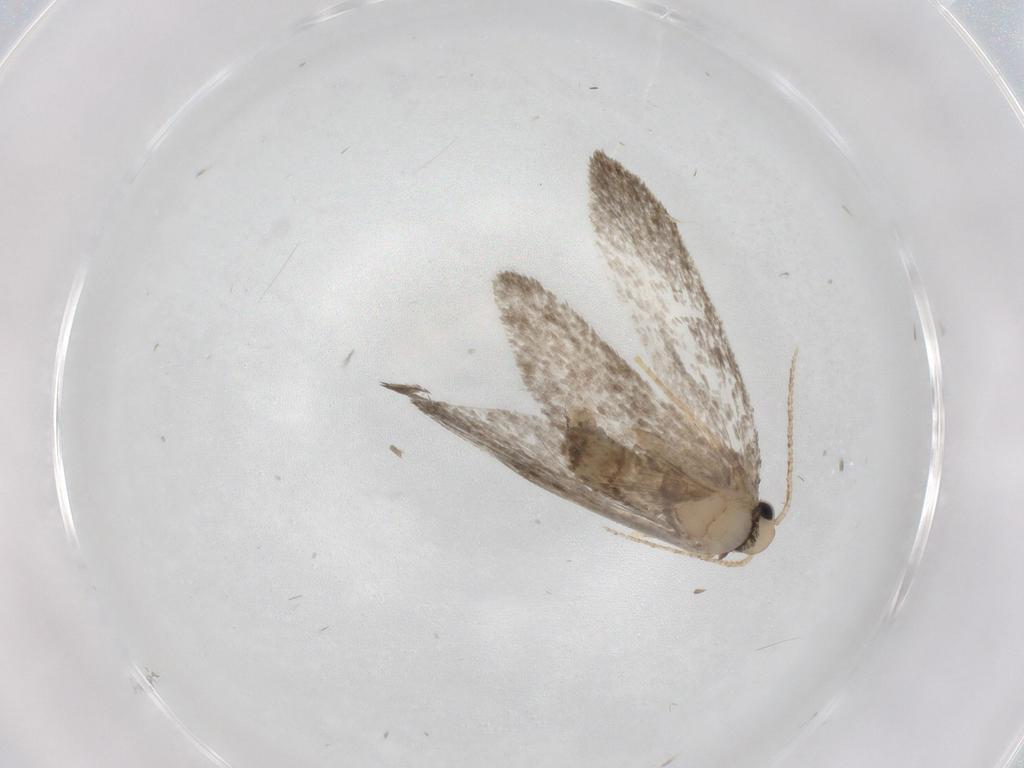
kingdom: Animalia
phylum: Arthropoda
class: Insecta
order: Lepidoptera
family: Psychidae
